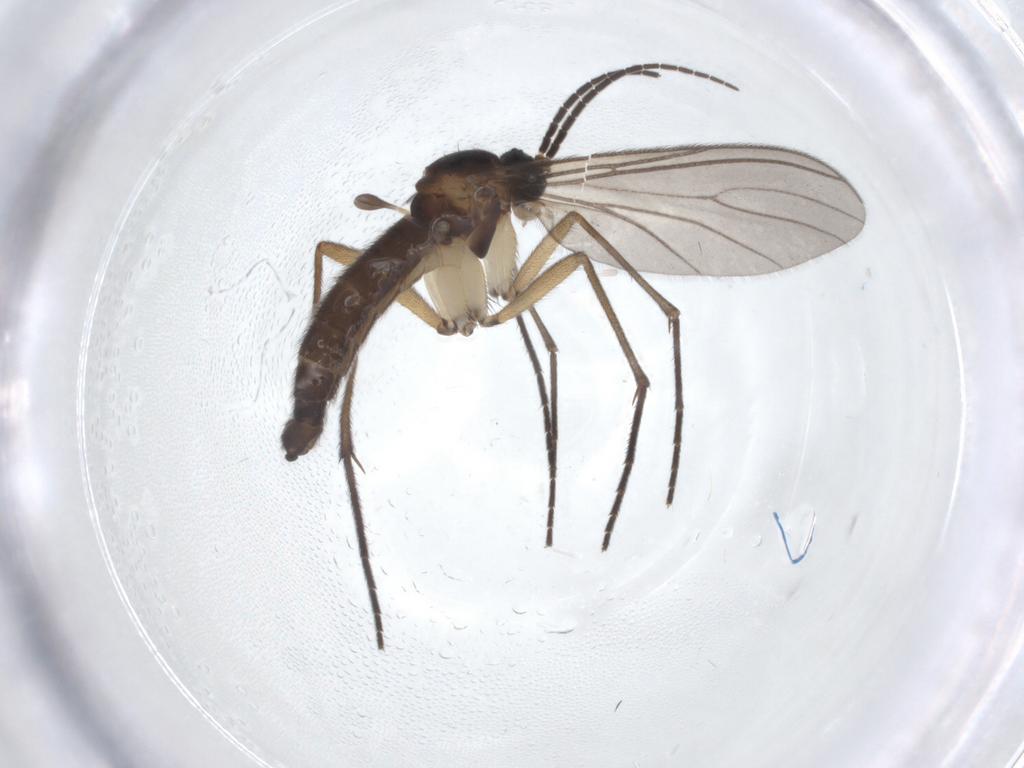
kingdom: Animalia
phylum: Arthropoda
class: Insecta
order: Diptera
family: Sciaridae
